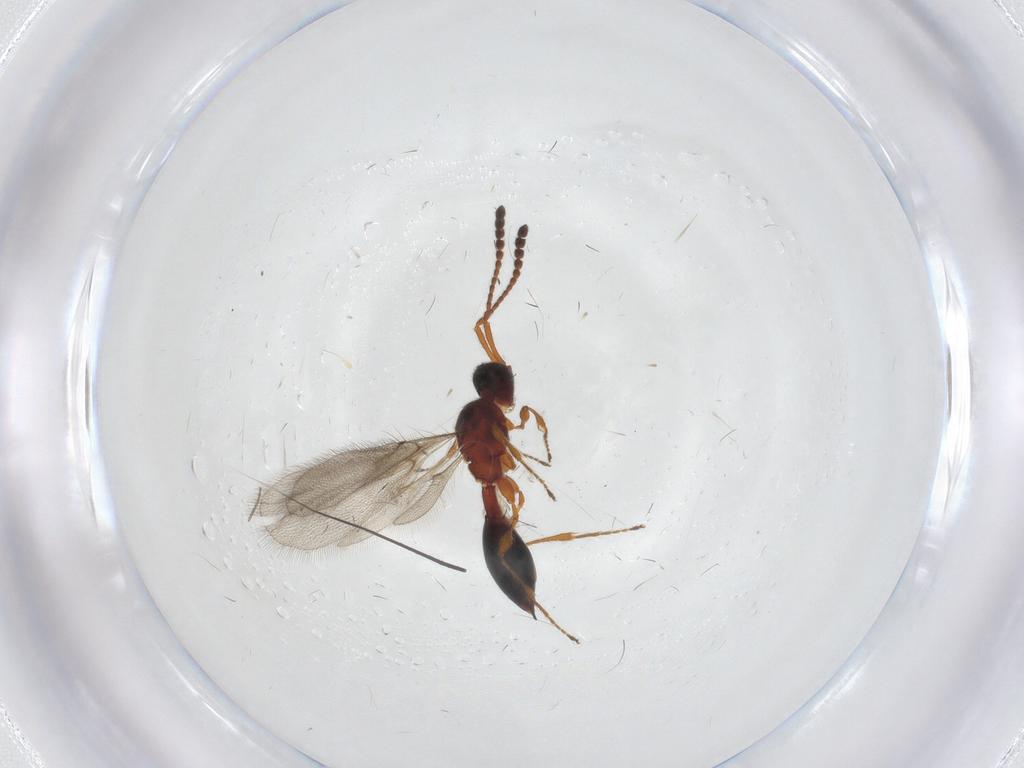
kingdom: Animalia
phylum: Arthropoda
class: Insecta
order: Hymenoptera
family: Diapriidae
